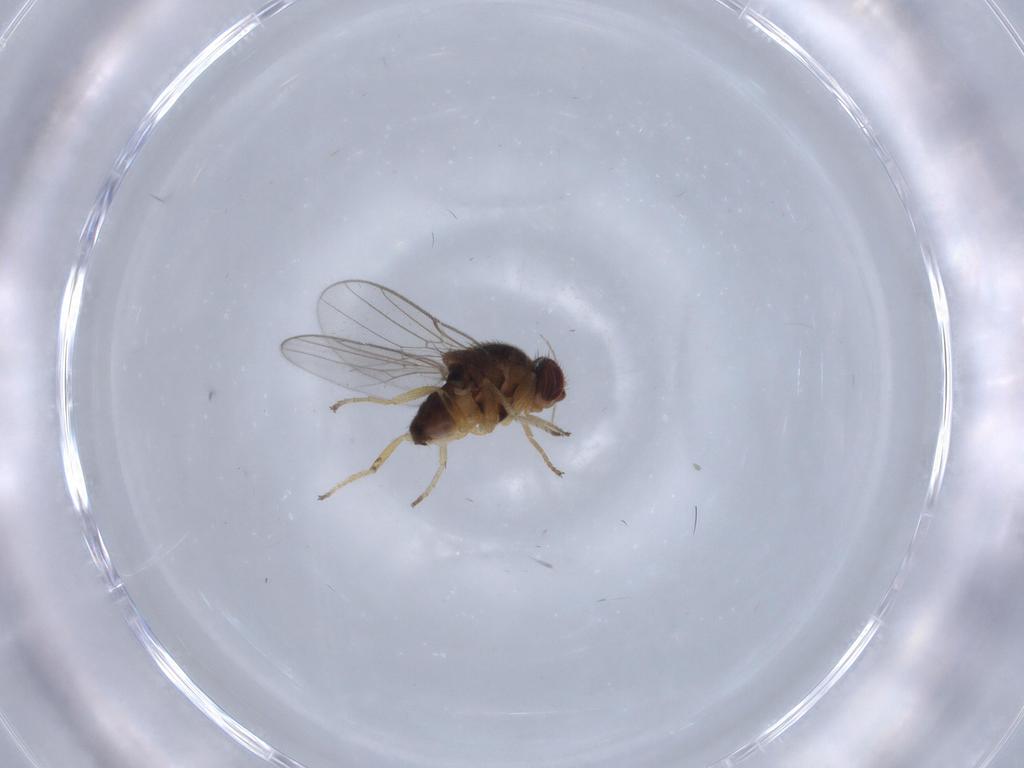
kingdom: Animalia
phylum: Arthropoda
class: Insecta
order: Diptera
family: Chloropidae
